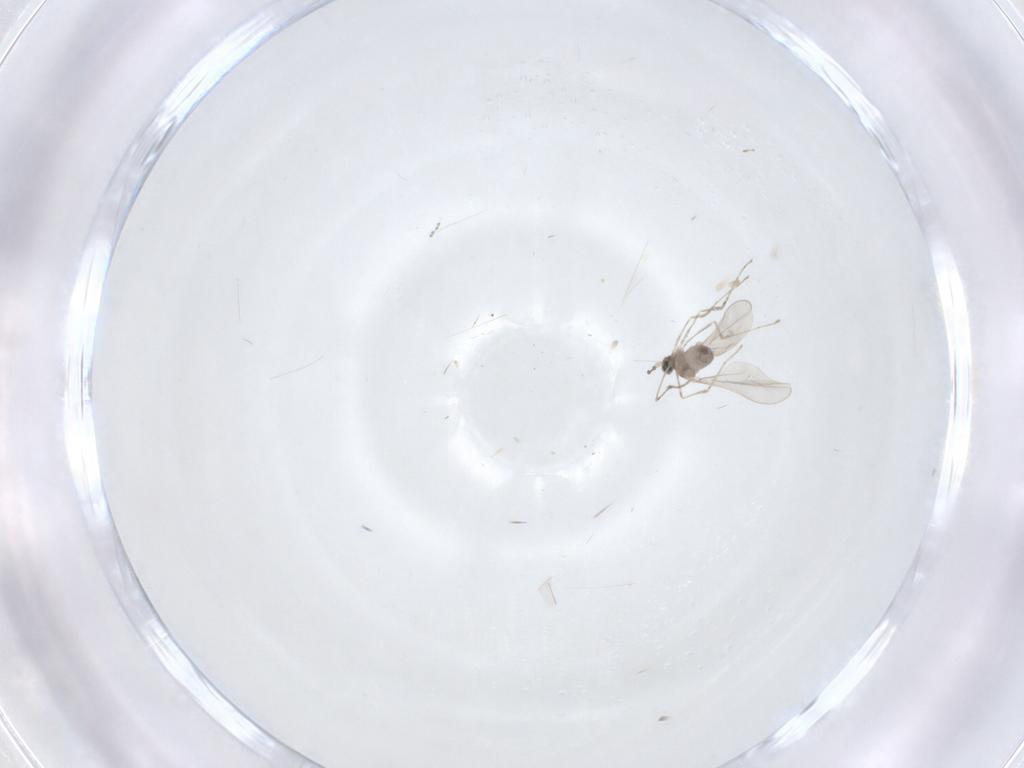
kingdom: Animalia
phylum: Arthropoda
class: Insecta
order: Diptera
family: Cecidomyiidae
